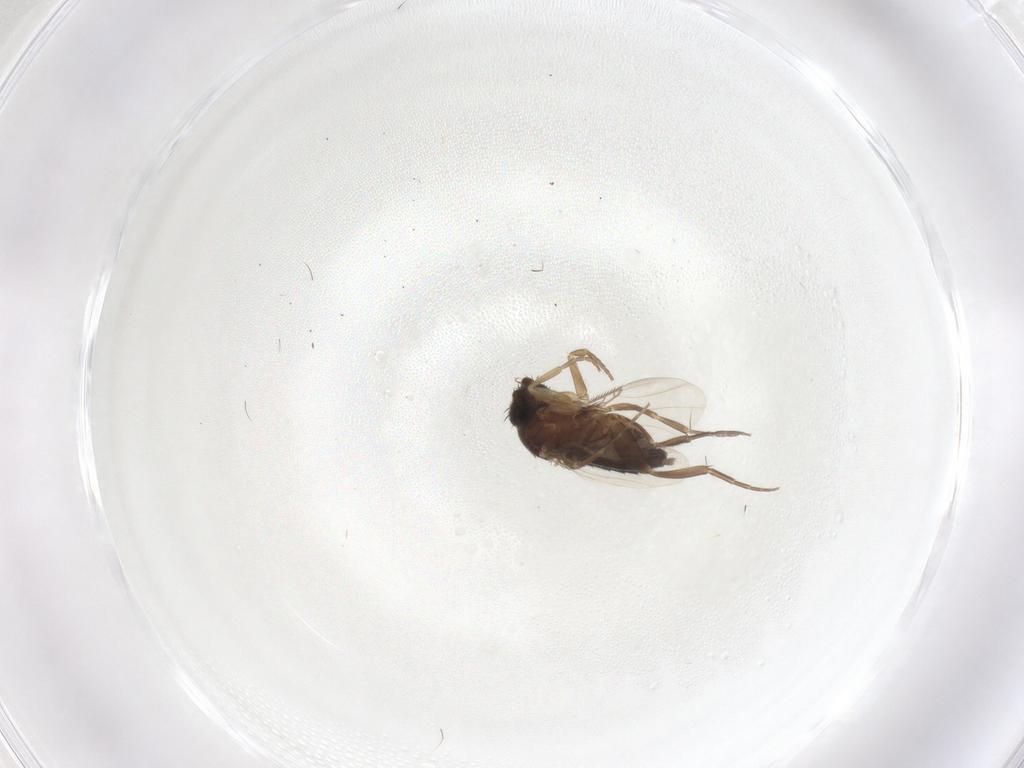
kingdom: Animalia
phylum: Arthropoda
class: Insecta
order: Diptera
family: Phoridae
